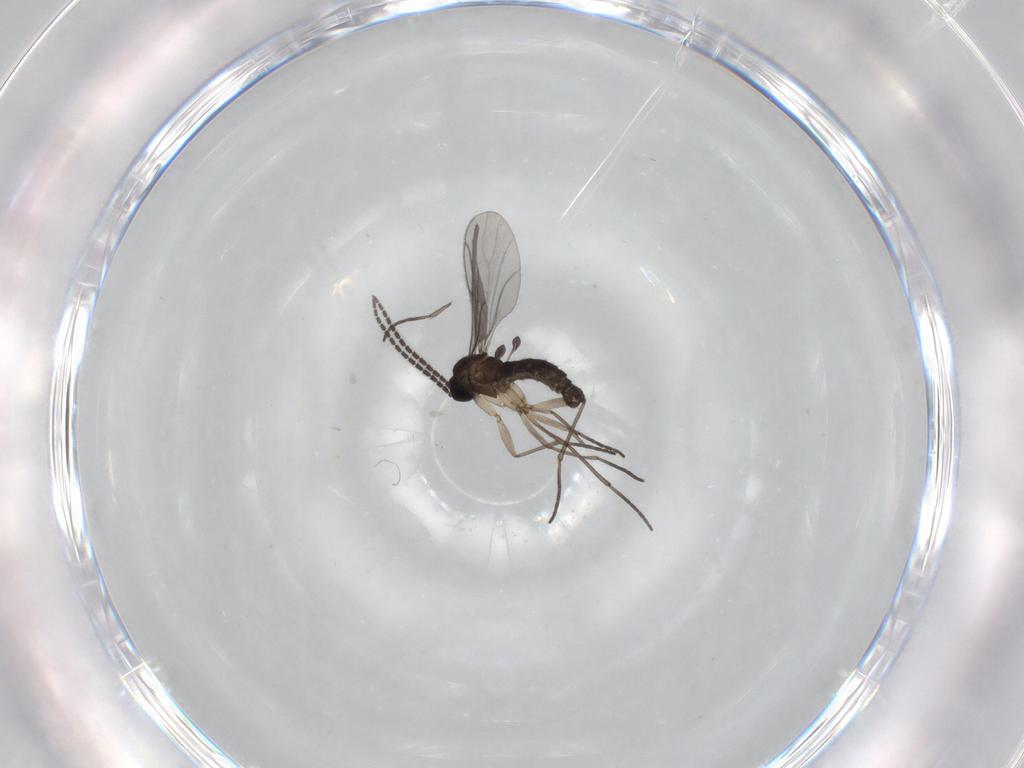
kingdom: Animalia
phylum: Arthropoda
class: Insecta
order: Diptera
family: Sciaridae
